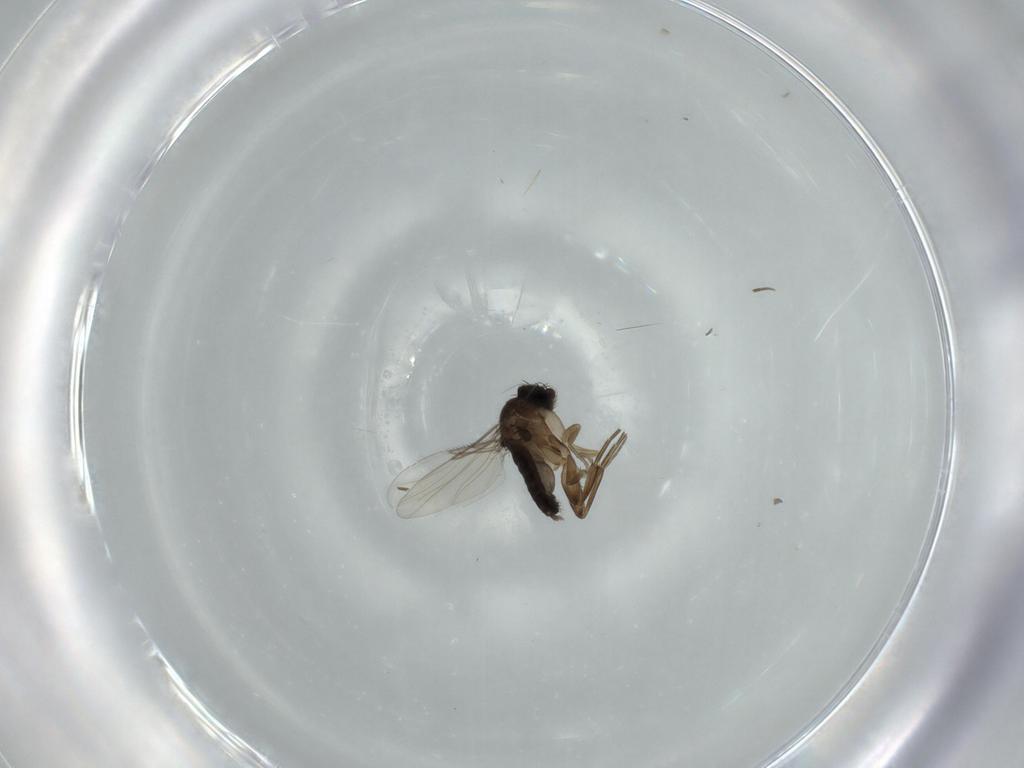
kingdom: Animalia
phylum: Arthropoda
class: Insecta
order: Diptera
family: Phoridae
